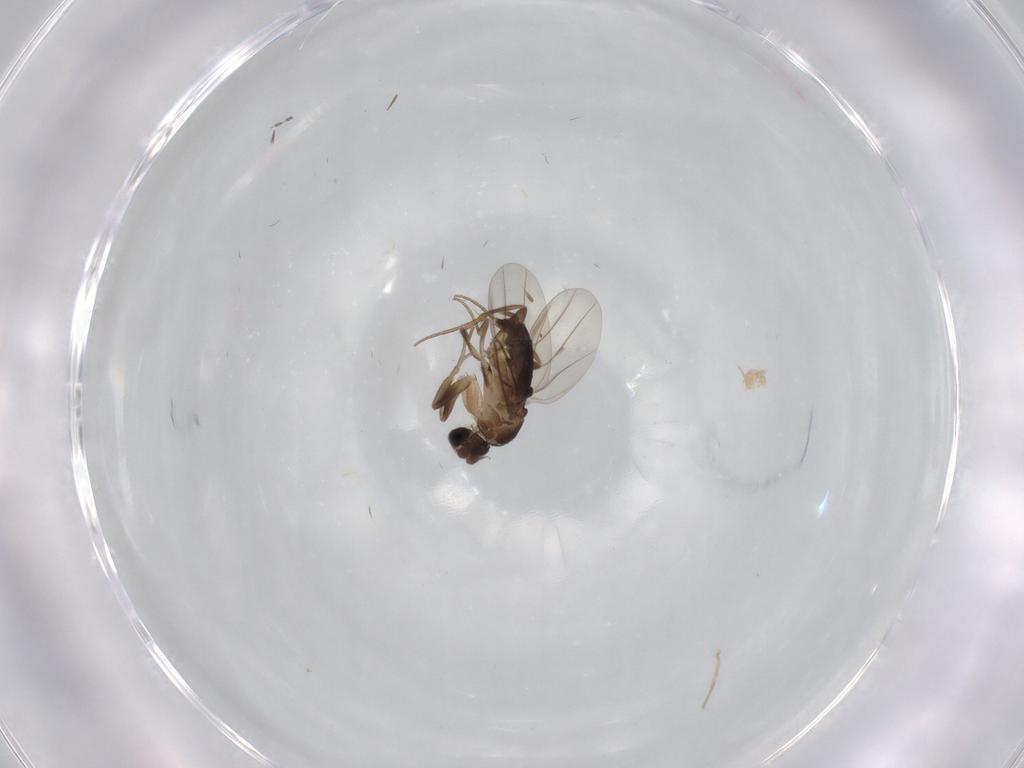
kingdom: Animalia
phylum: Arthropoda
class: Insecta
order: Diptera
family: Phoridae
